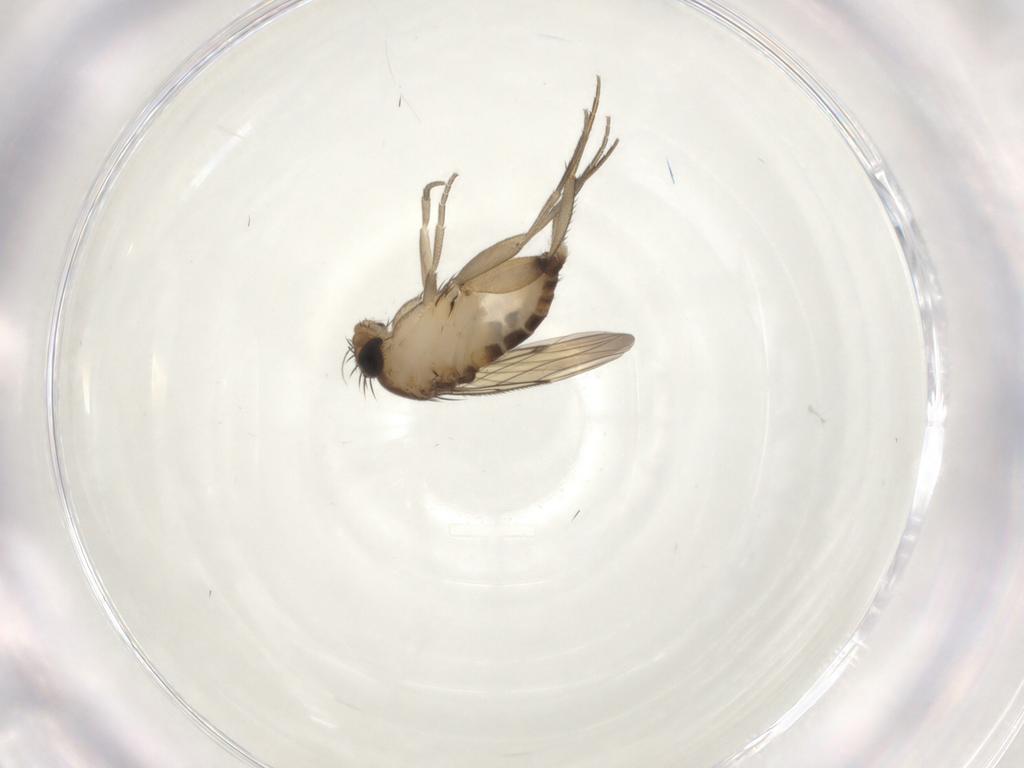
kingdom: Animalia
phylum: Arthropoda
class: Insecta
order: Diptera
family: Phoridae
